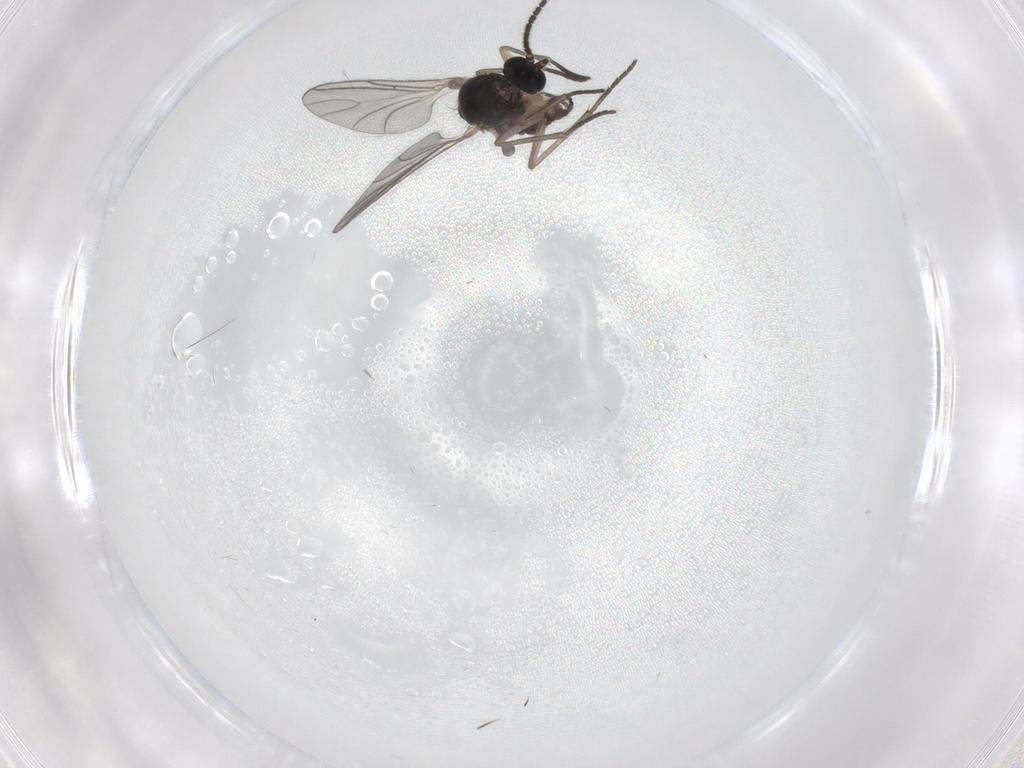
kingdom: Animalia
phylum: Arthropoda
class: Insecta
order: Diptera
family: Sciaridae
